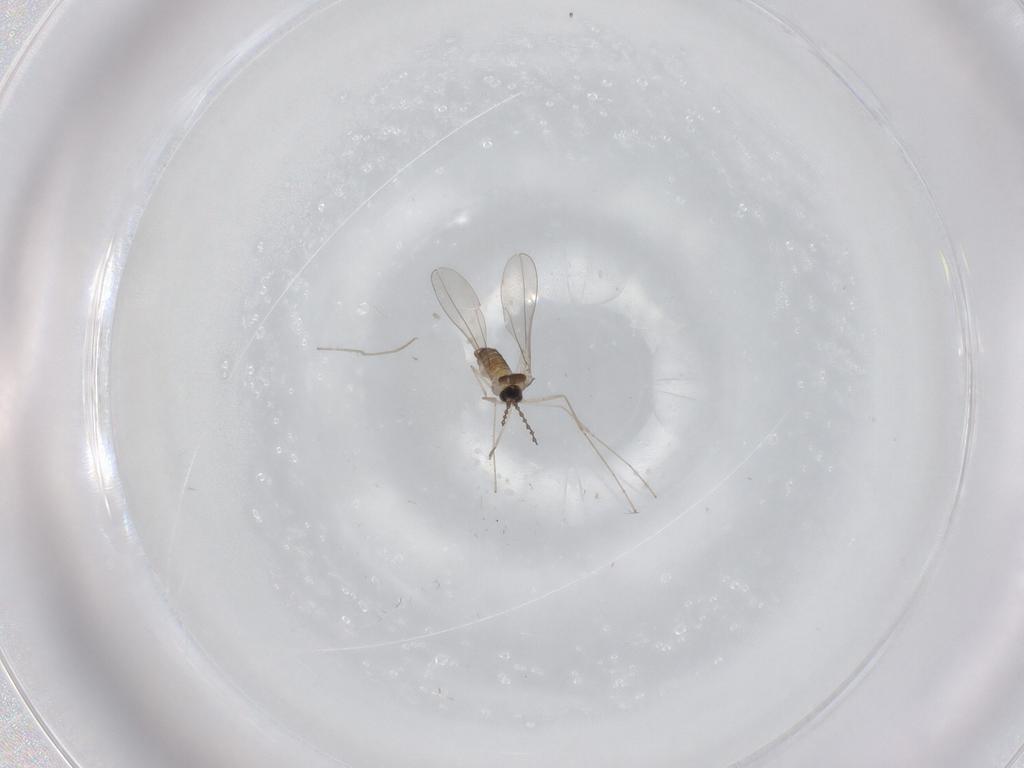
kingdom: Animalia
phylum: Arthropoda
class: Insecta
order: Diptera
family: Cecidomyiidae
